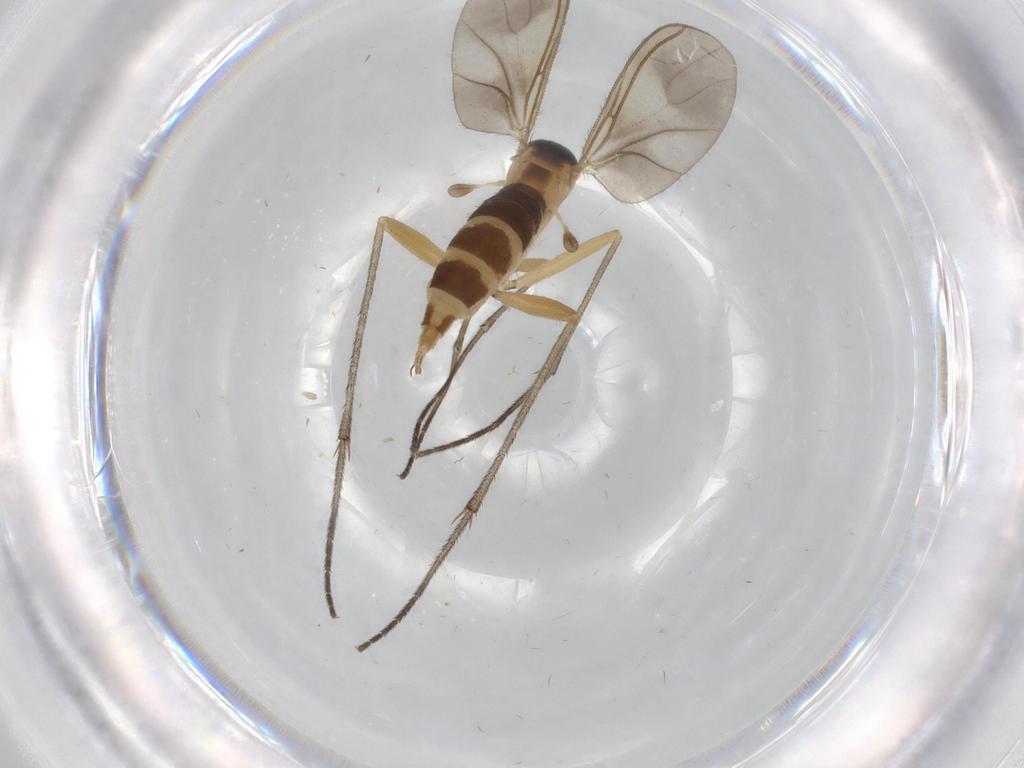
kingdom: Animalia
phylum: Arthropoda
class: Insecta
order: Diptera
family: Sciaridae
